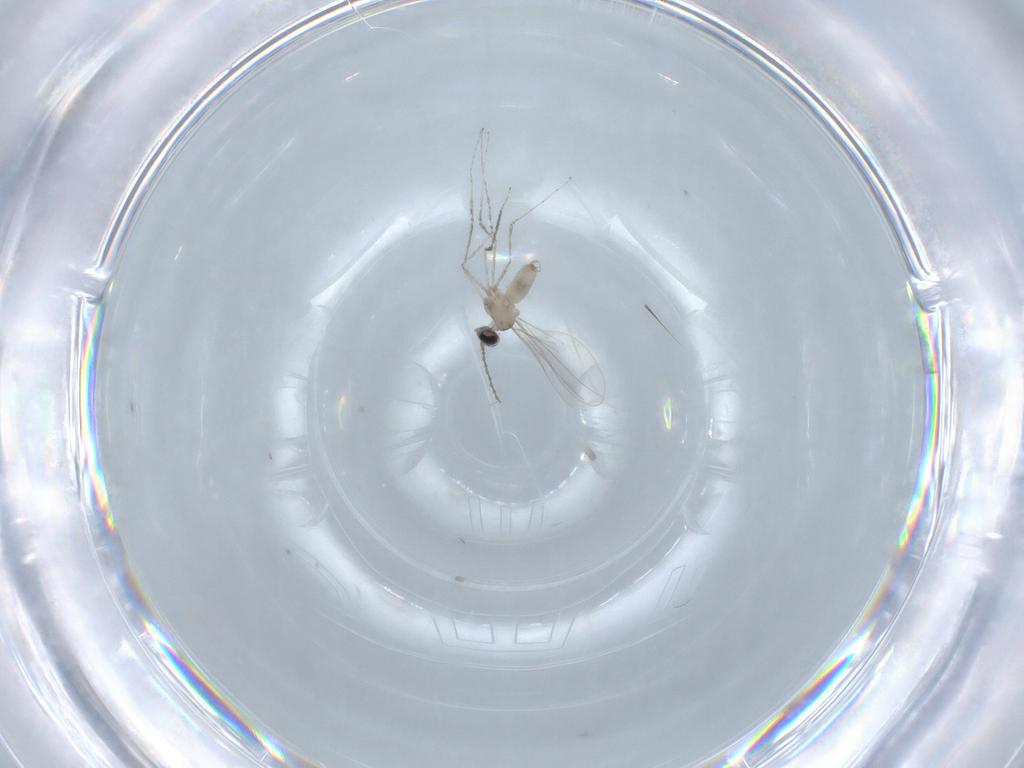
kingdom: Animalia
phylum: Arthropoda
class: Insecta
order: Diptera
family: Cecidomyiidae
